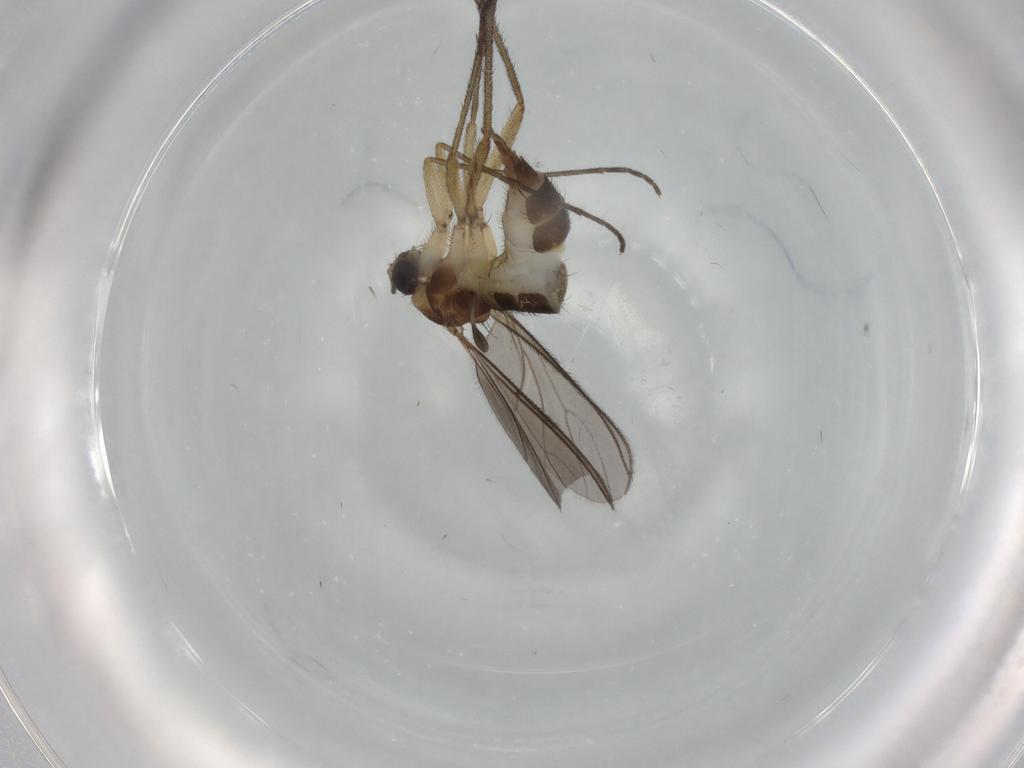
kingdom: Animalia
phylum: Arthropoda
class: Insecta
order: Diptera
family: Sciaridae
